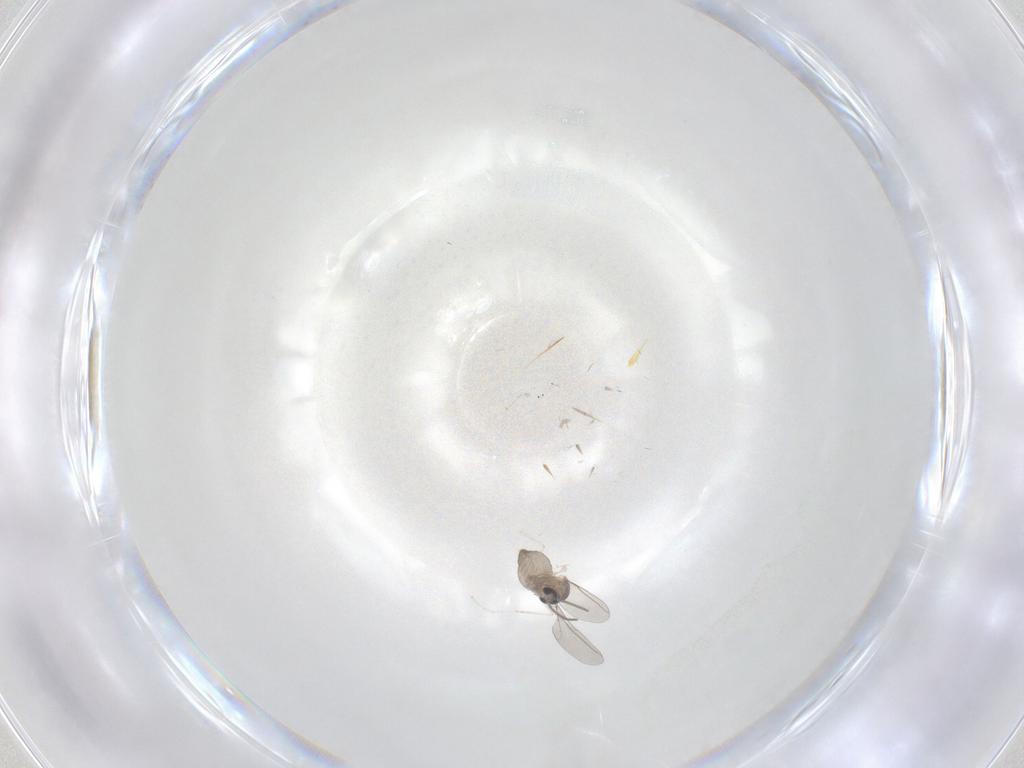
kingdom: Animalia
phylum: Arthropoda
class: Insecta
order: Diptera
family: Cecidomyiidae
